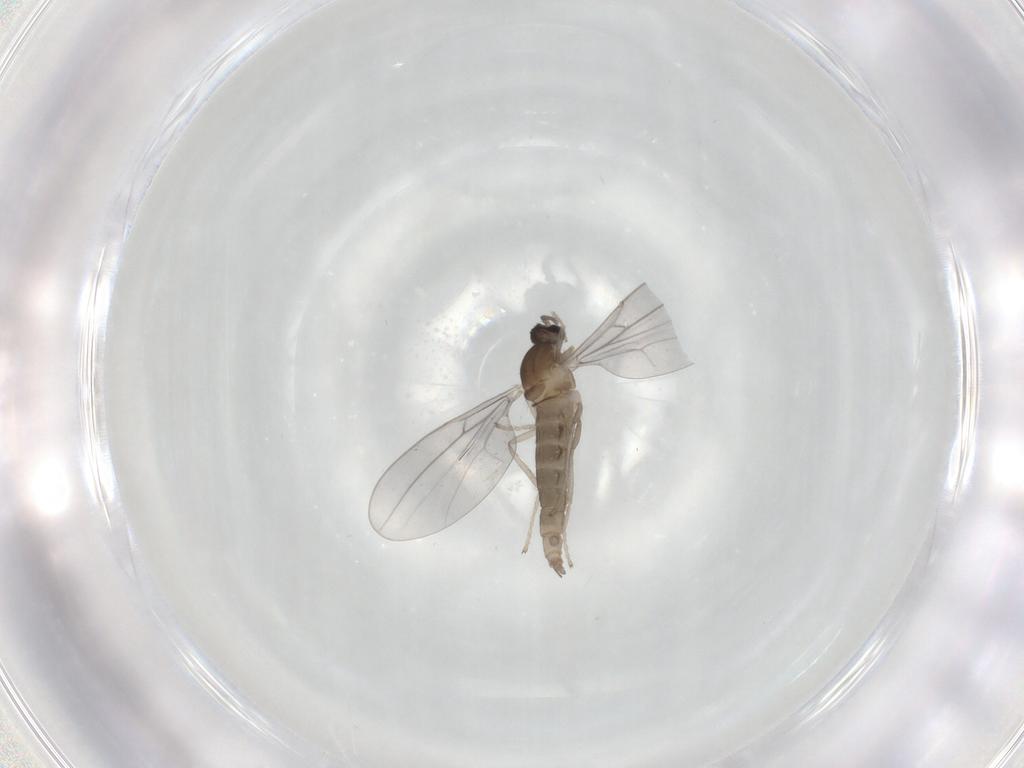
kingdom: Animalia
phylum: Arthropoda
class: Insecta
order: Diptera
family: Cecidomyiidae
